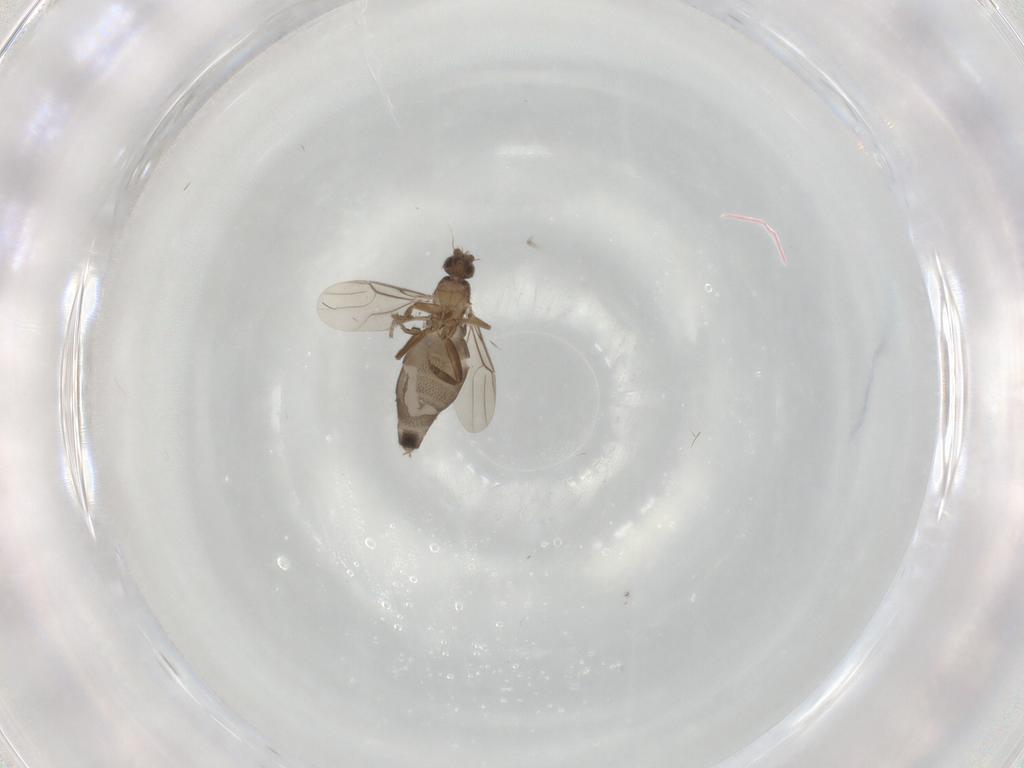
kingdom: Animalia
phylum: Arthropoda
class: Insecta
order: Diptera
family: Phoridae
